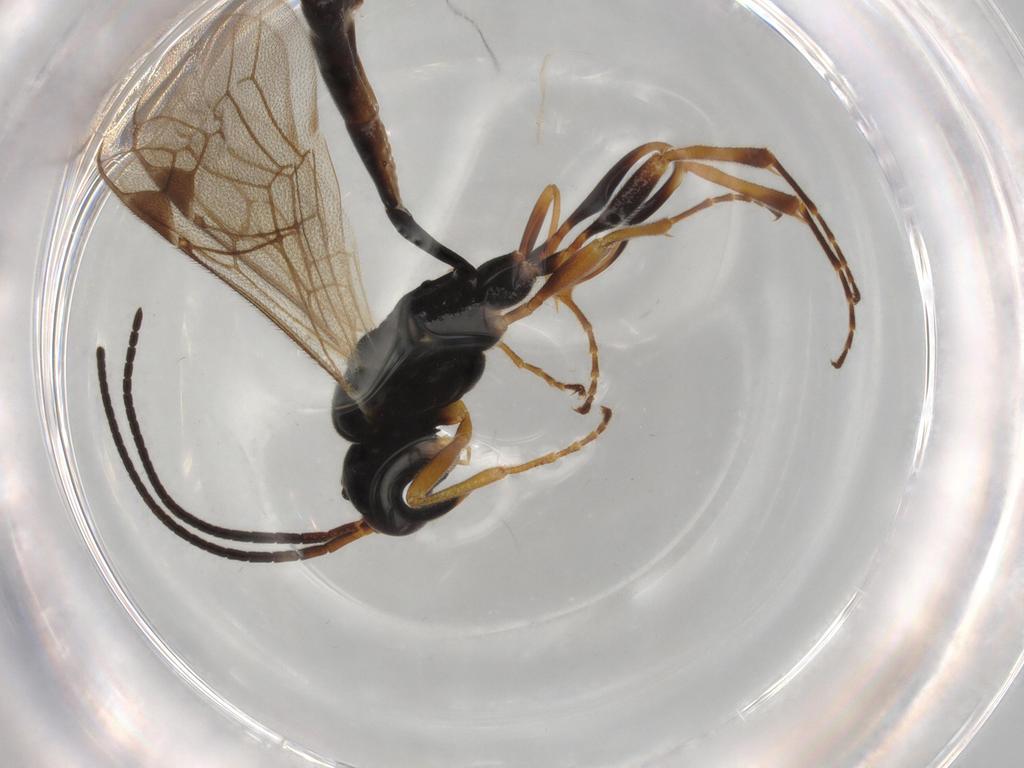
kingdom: Animalia
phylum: Arthropoda
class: Insecta
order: Hymenoptera
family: Ichneumonidae
